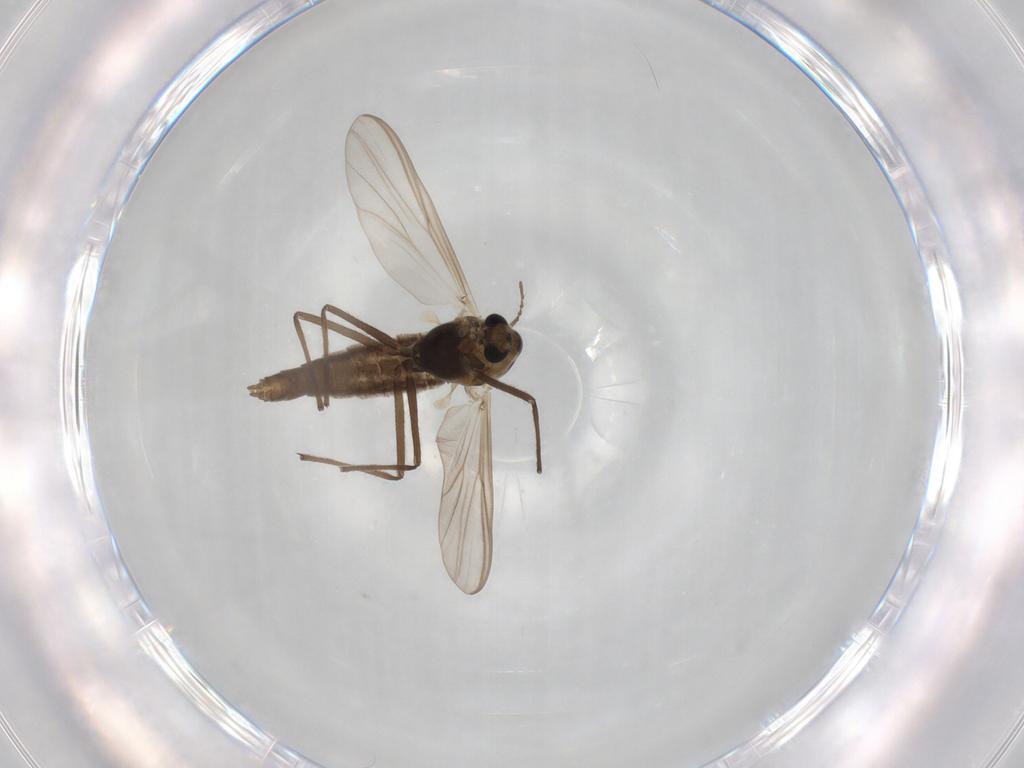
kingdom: Animalia
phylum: Arthropoda
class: Insecta
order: Diptera
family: Chironomidae
